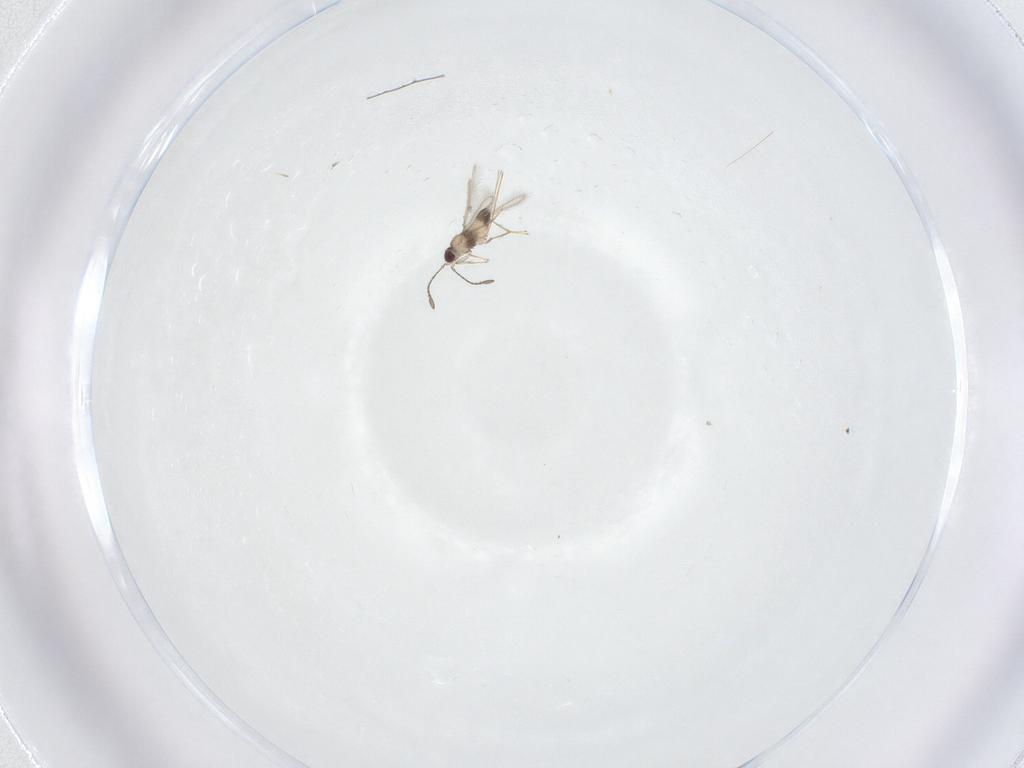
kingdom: Animalia
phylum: Arthropoda
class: Insecta
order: Hymenoptera
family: Mymaridae
